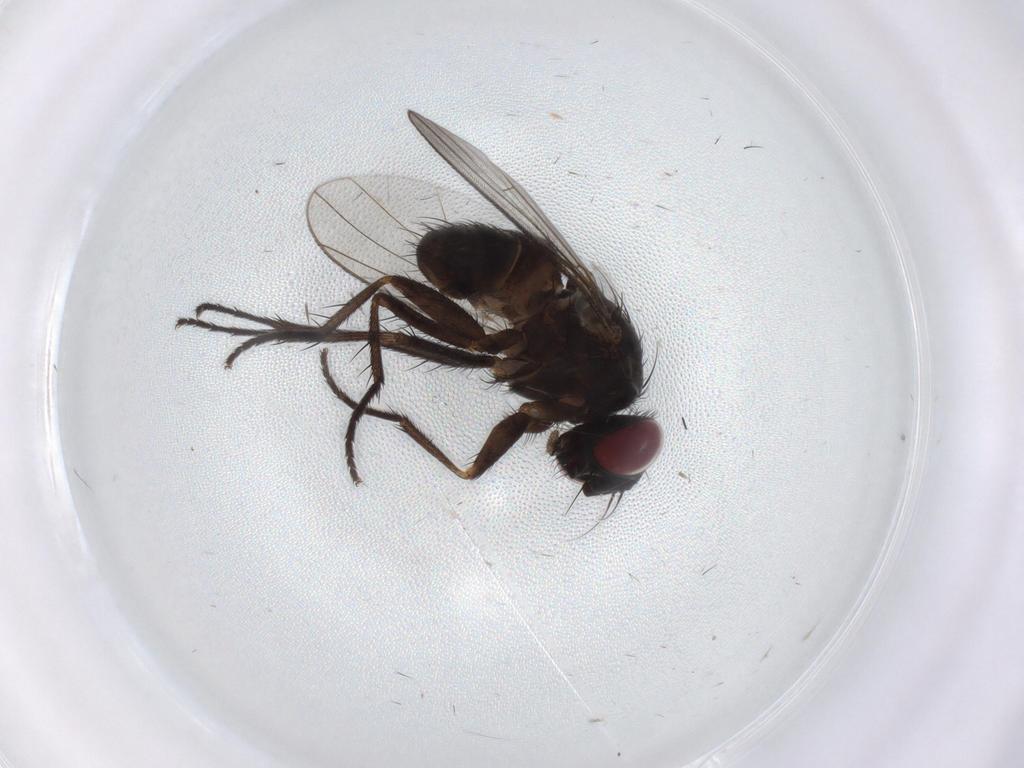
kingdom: Animalia
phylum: Arthropoda
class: Insecta
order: Diptera
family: Muscidae
